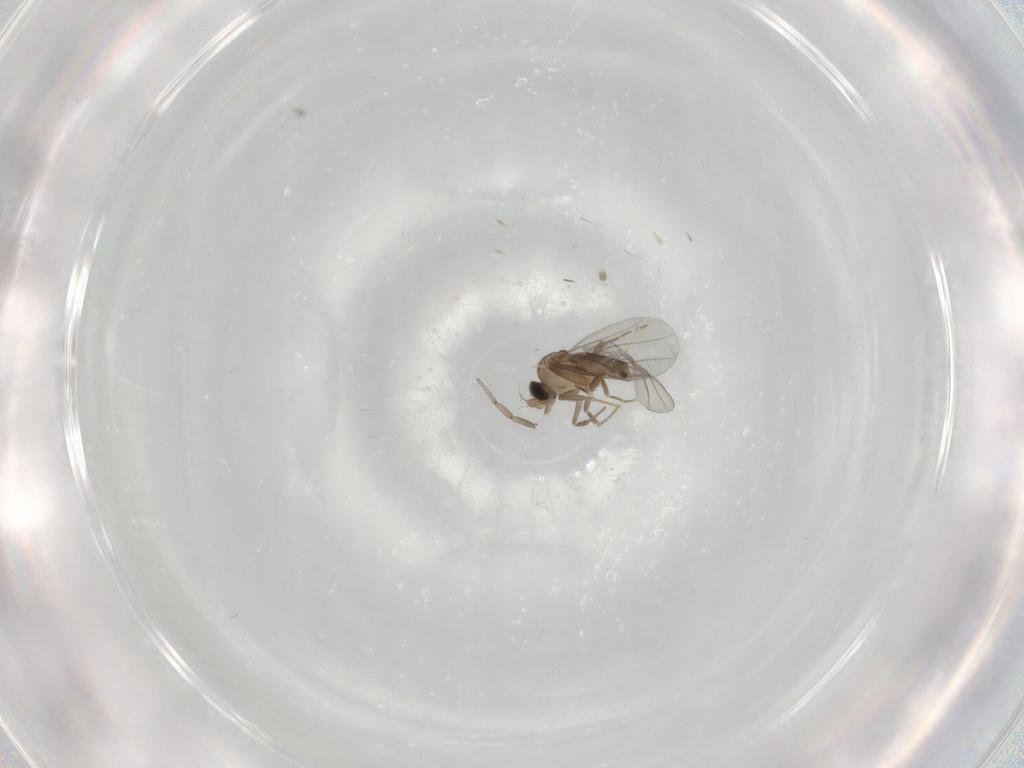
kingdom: Animalia
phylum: Arthropoda
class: Insecta
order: Diptera
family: Cecidomyiidae
